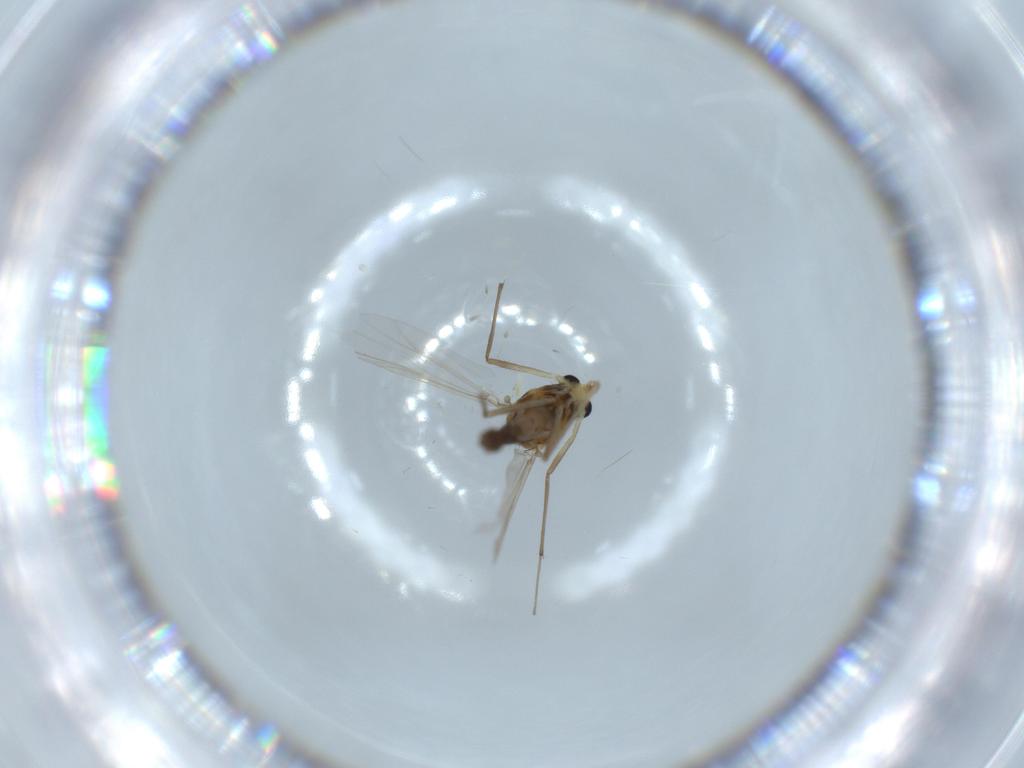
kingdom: Animalia
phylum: Arthropoda
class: Insecta
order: Diptera
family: Chironomidae
